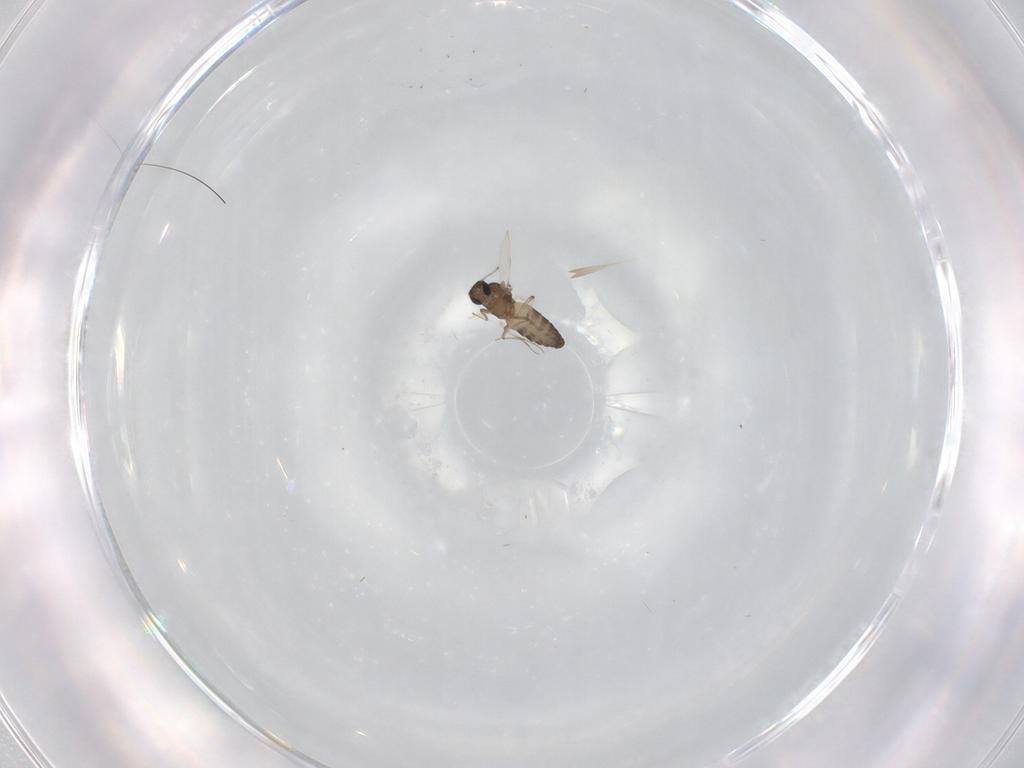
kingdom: Animalia
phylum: Arthropoda
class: Insecta
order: Diptera
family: Ceratopogonidae
